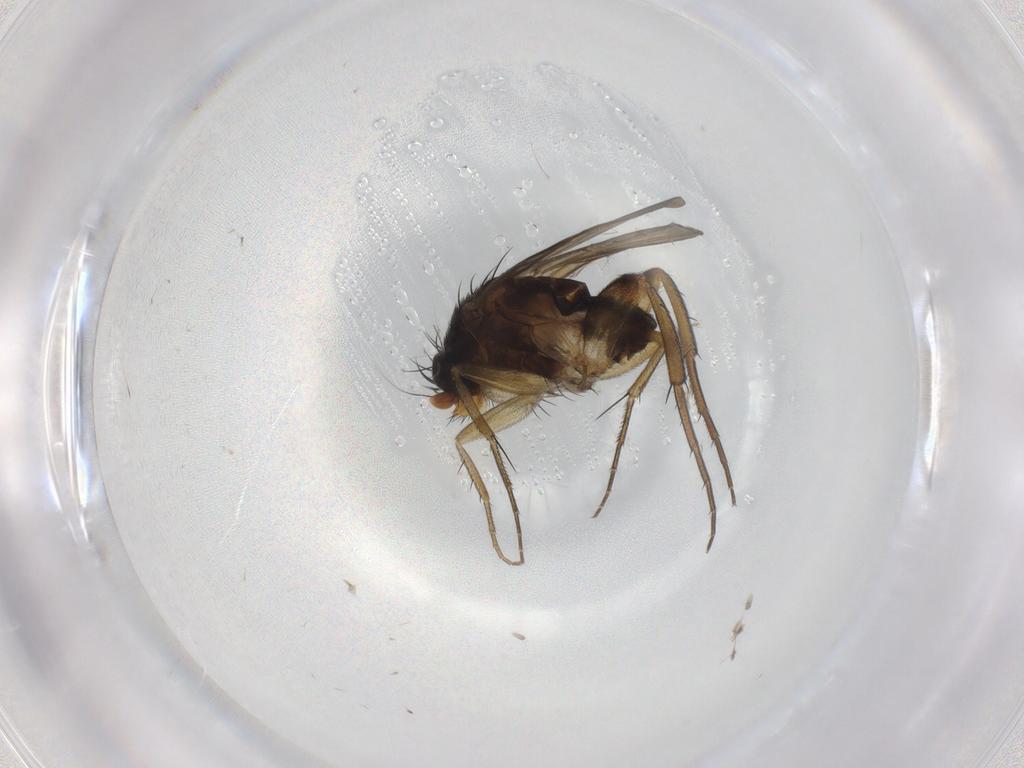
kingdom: Animalia
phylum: Arthropoda
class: Insecta
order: Diptera
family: Phoridae
